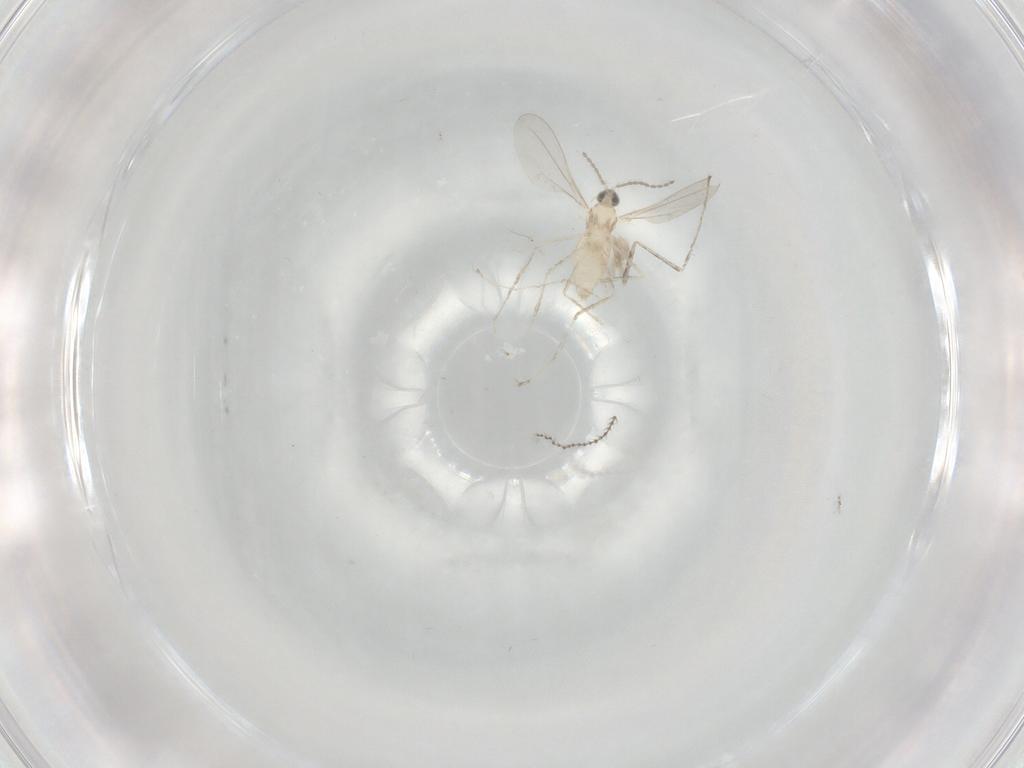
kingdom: Animalia
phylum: Arthropoda
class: Insecta
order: Diptera
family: Cecidomyiidae
